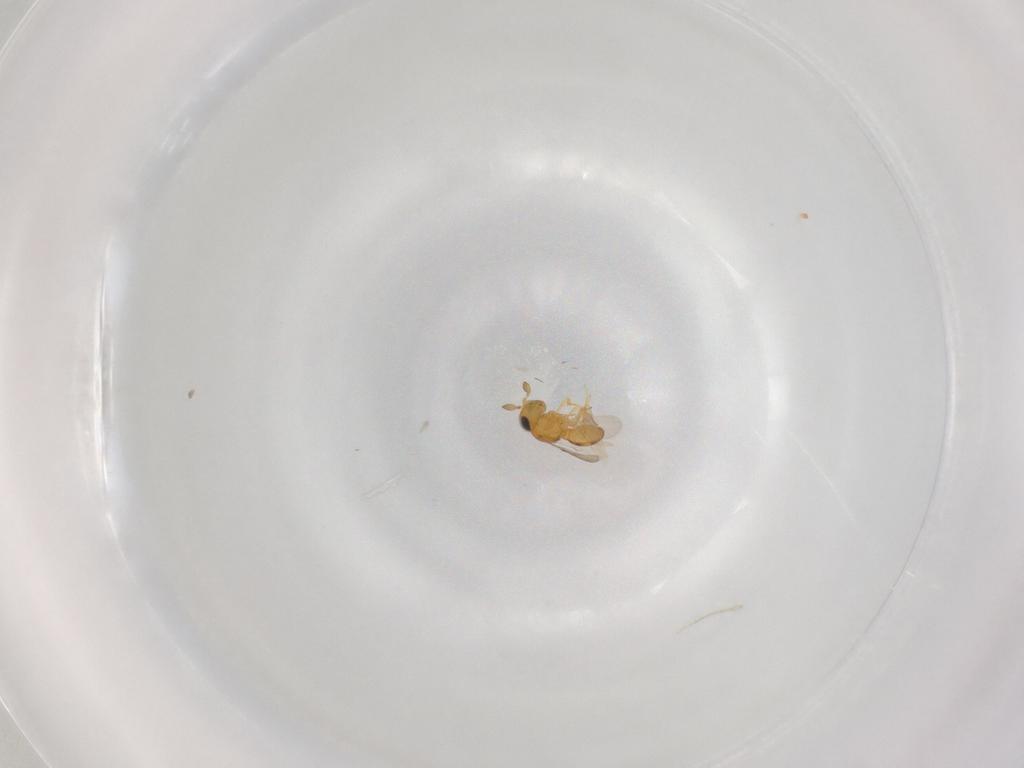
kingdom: Animalia
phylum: Arthropoda
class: Insecta
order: Hymenoptera
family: Scelionidae
